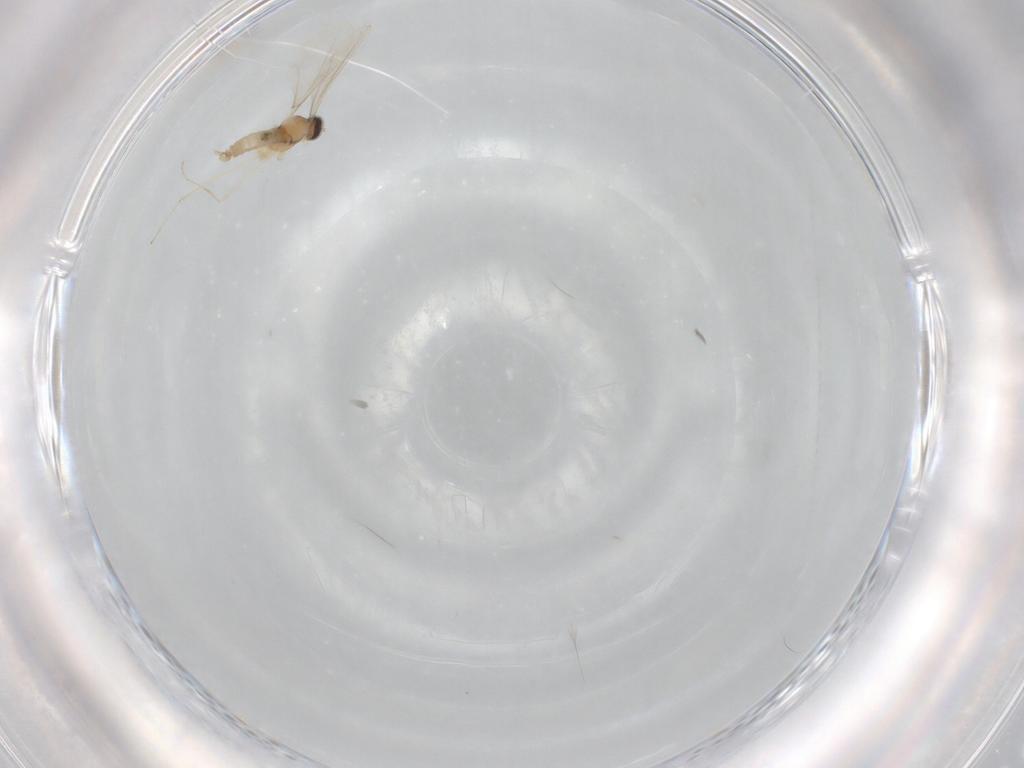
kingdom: Animalia
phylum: Arthropoda
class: Insecta
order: Diptera
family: Cecidomyiidae
